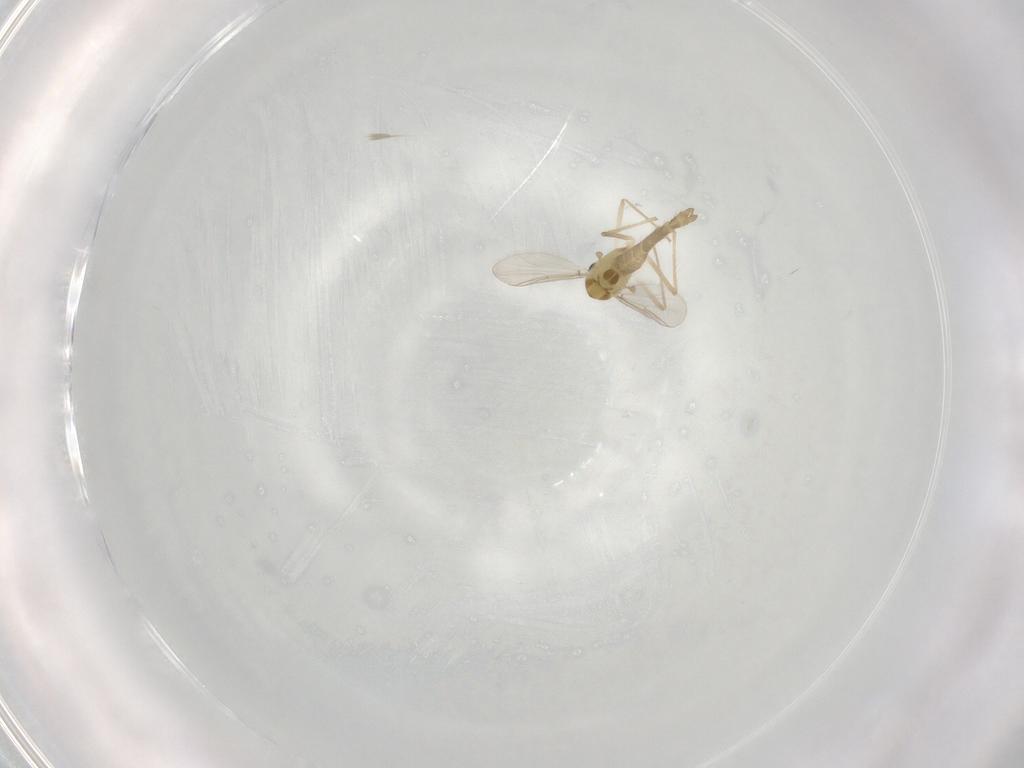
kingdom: Animalia
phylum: Arthropoda
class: Insecta
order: Diptera
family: Chironomidae
